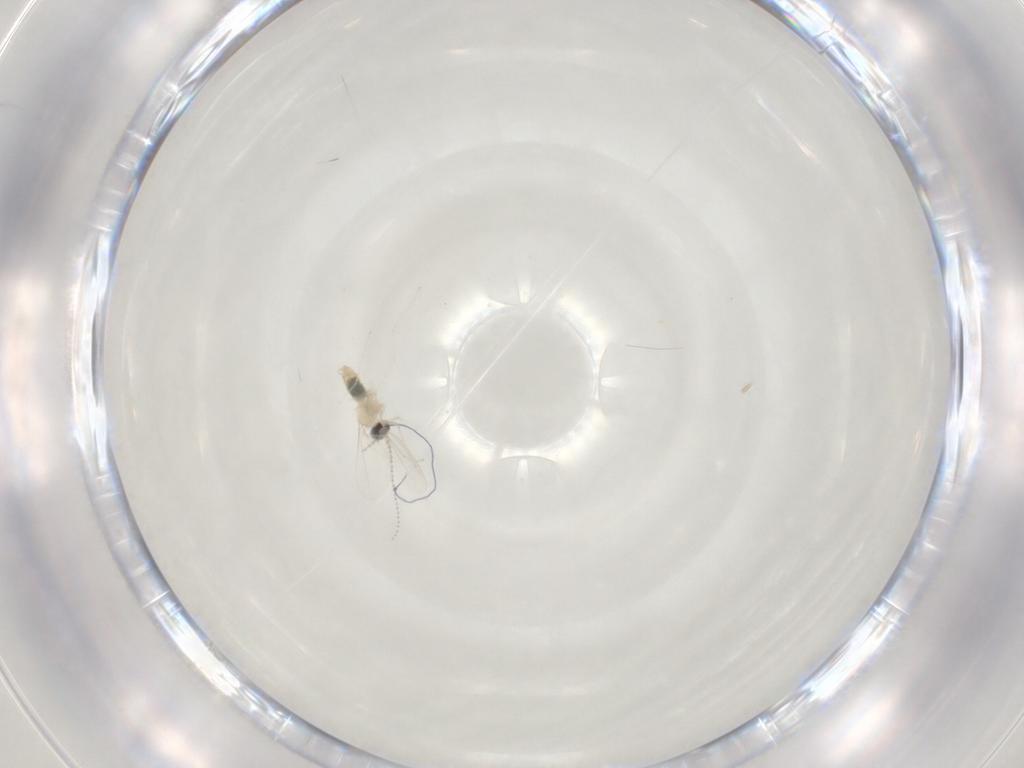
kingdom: Animalia
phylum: Arthropoda
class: Insecta
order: Diptera
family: Cecidomyiidae
